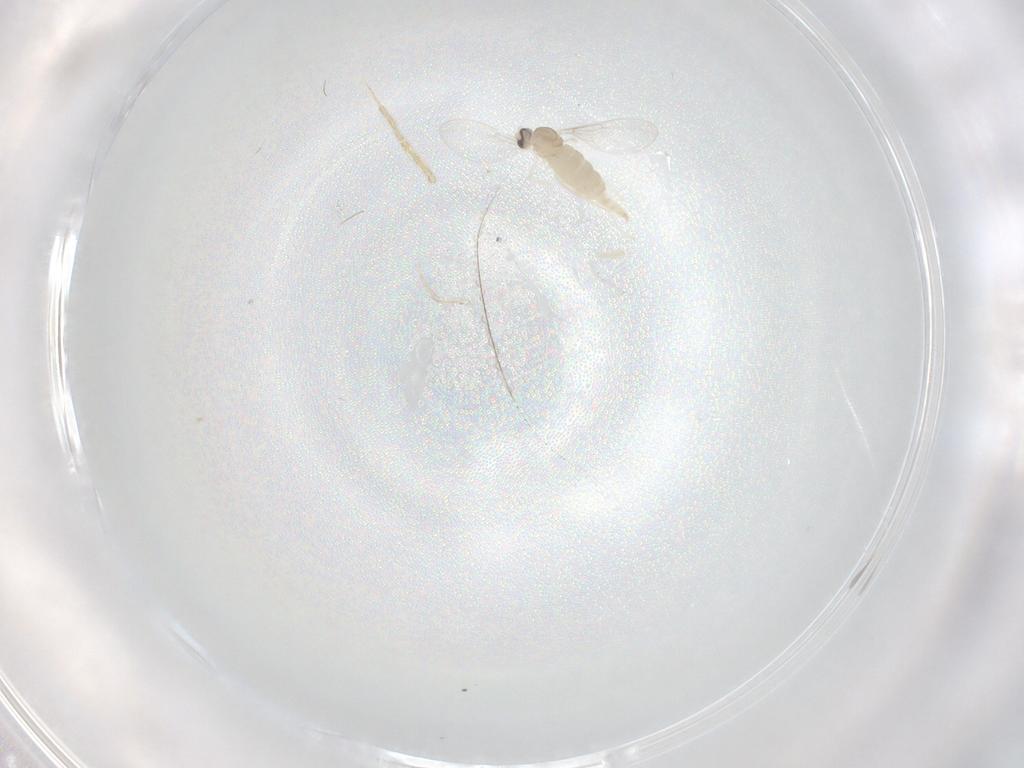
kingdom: Animalia
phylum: Arthropoda
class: Insecta
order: Diptera
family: Cecidomyiidae
